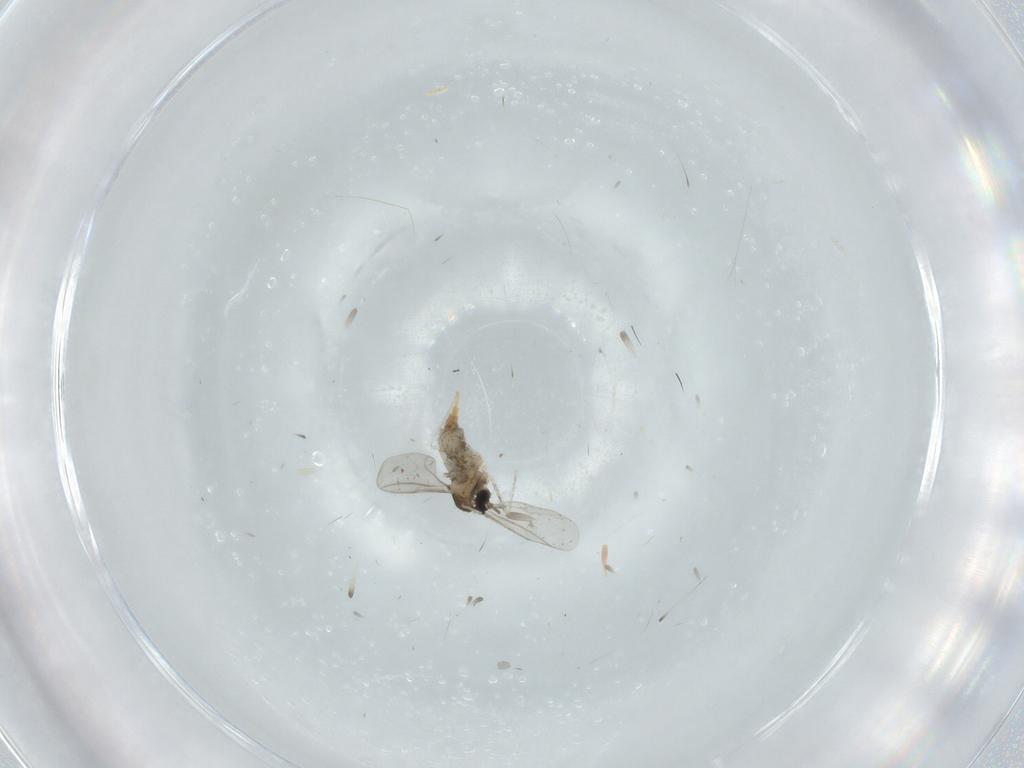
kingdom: Animalia
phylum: Arthropoda
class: Insecta
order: Diptera
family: Cecidomyiidae
